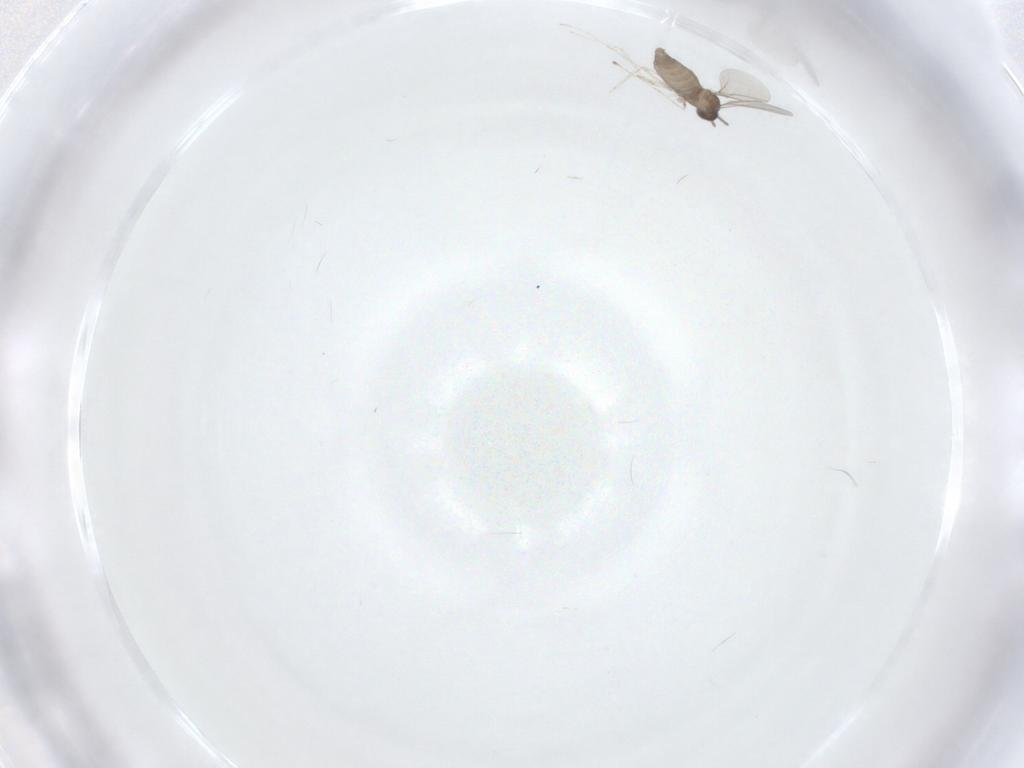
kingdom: Animalia
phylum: Arthropoda
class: Insecta
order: Diptera
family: Cecidomyiidae
